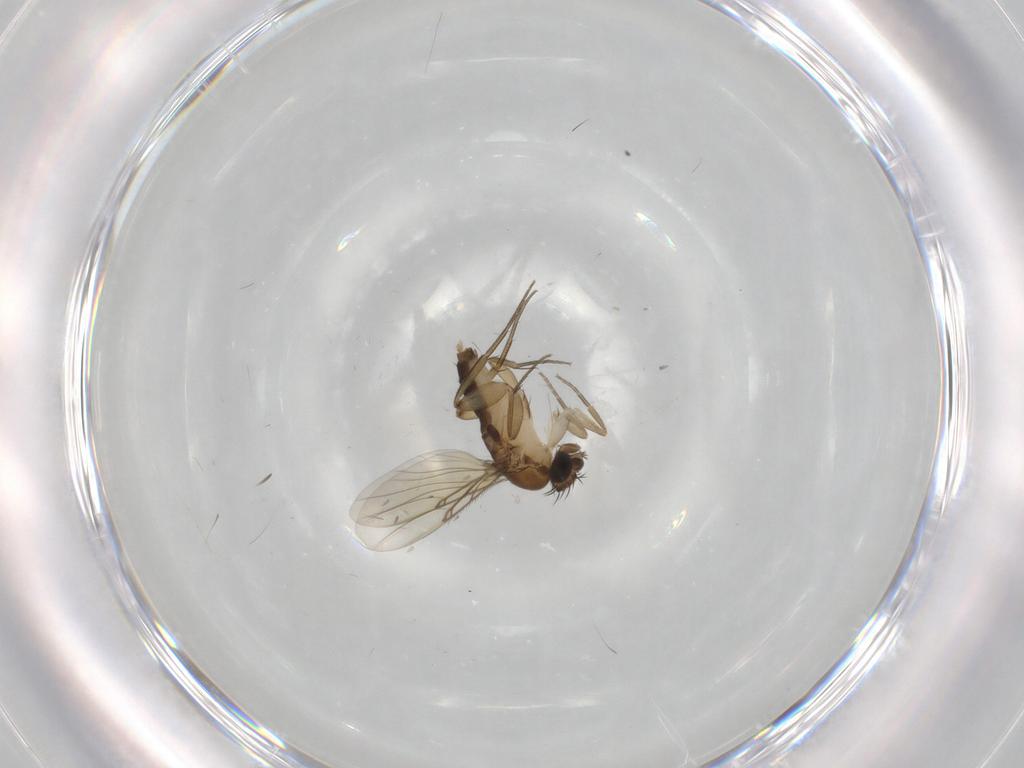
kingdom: Animalia
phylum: Arthropoda
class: Insecta
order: Diptera
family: Phoridae
